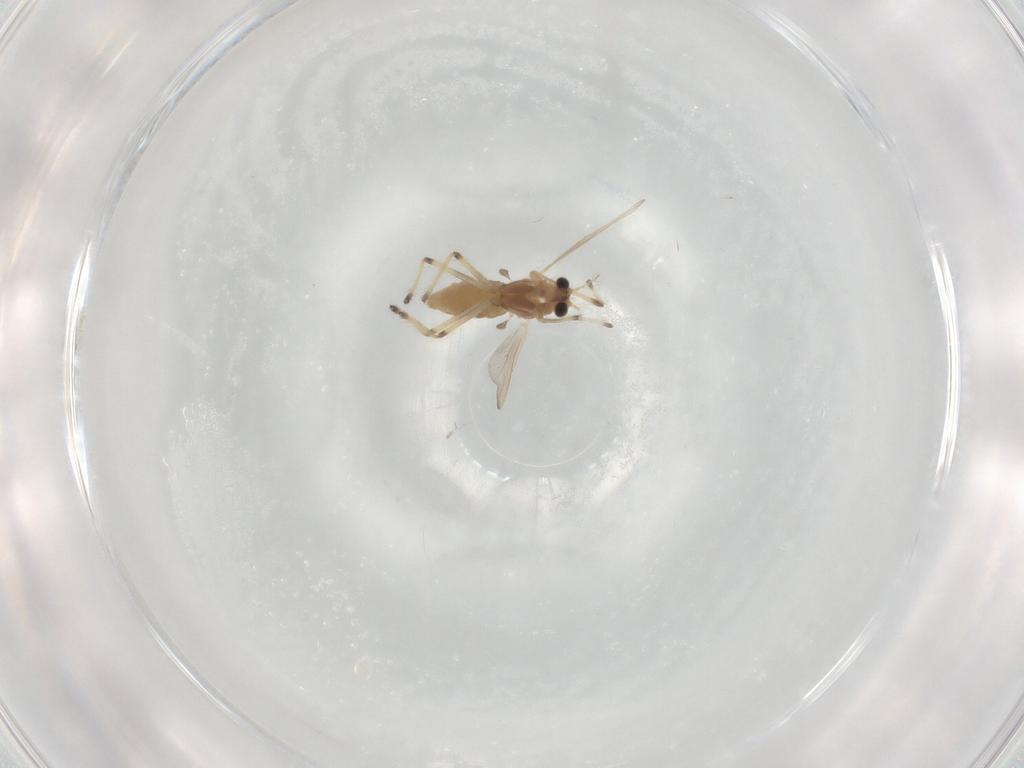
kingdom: Animalia
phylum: Arthropoda
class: Insecta
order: Diptera
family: Chironomidae
